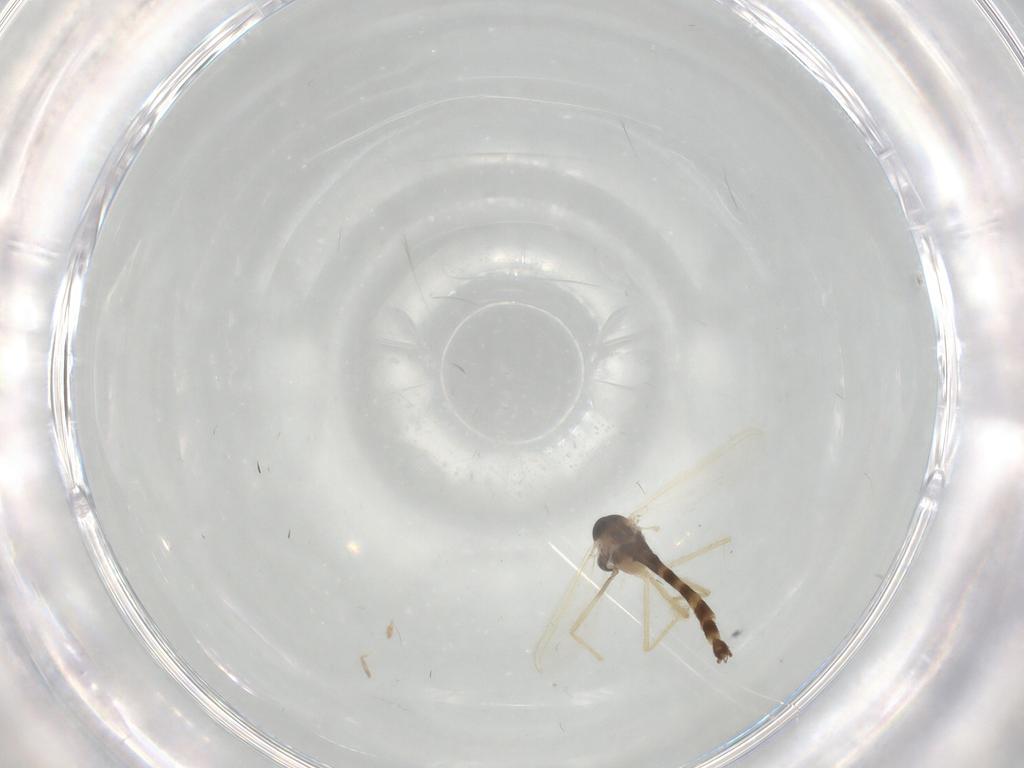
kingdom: Animalia
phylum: Arthropoda
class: Insecta
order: Diptera
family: Chironomidae
